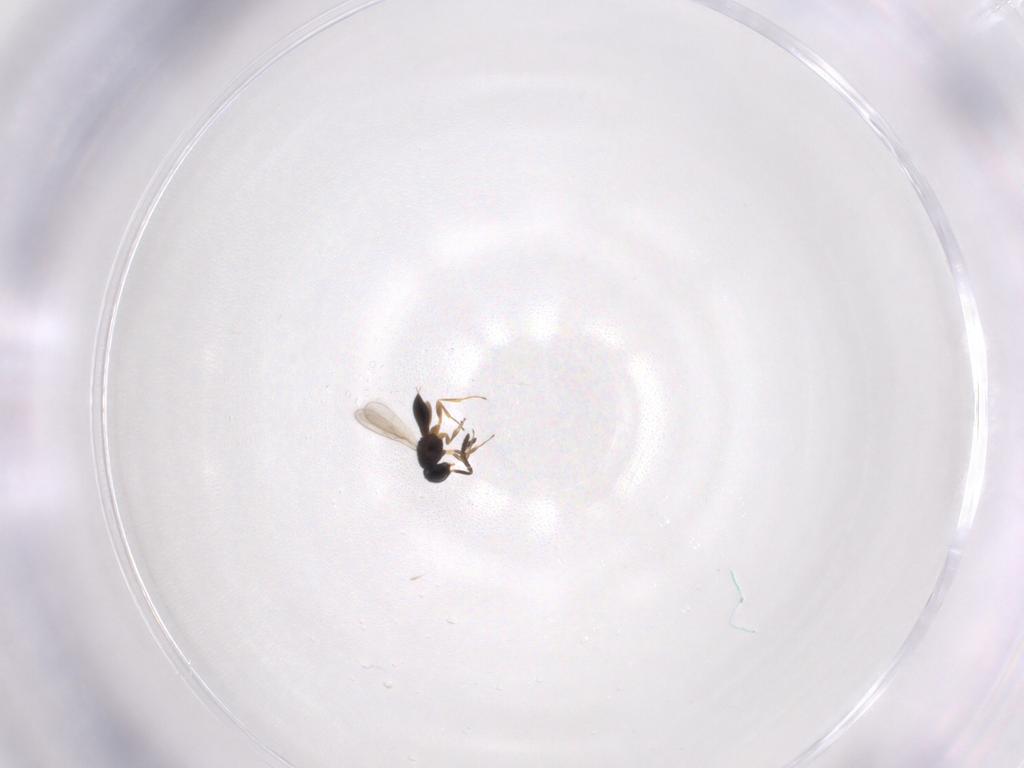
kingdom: Animalia
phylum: Arthropoda
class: Insecta
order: Hymenoptera
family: Scelionidae
